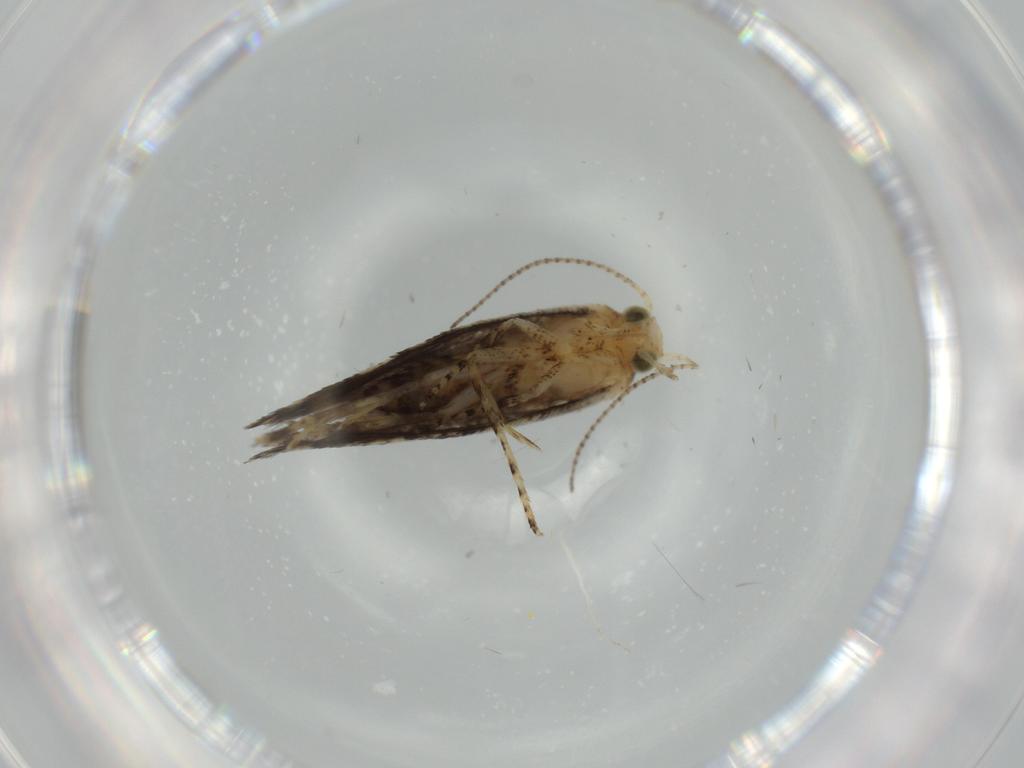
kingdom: Animalia
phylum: Arthropoda
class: Insecta
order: Lepidoptera
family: Glyphipterigidae
